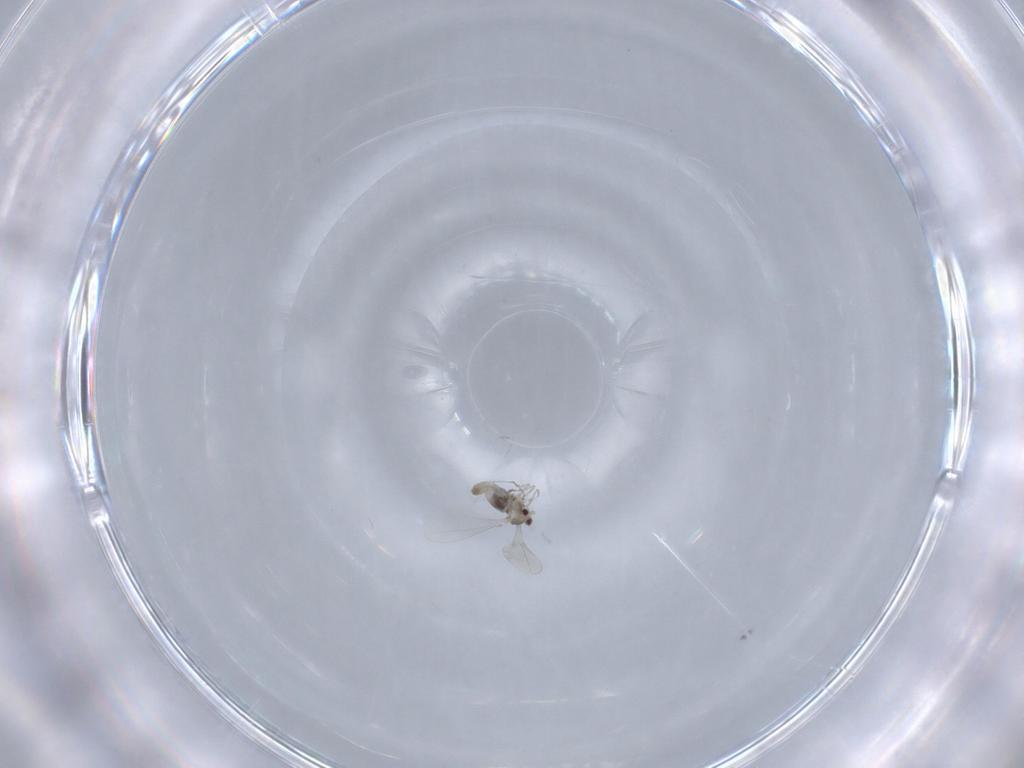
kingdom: Animalia
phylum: Arthropoda
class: Insecta
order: Diptera
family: Cecidomyiidae
